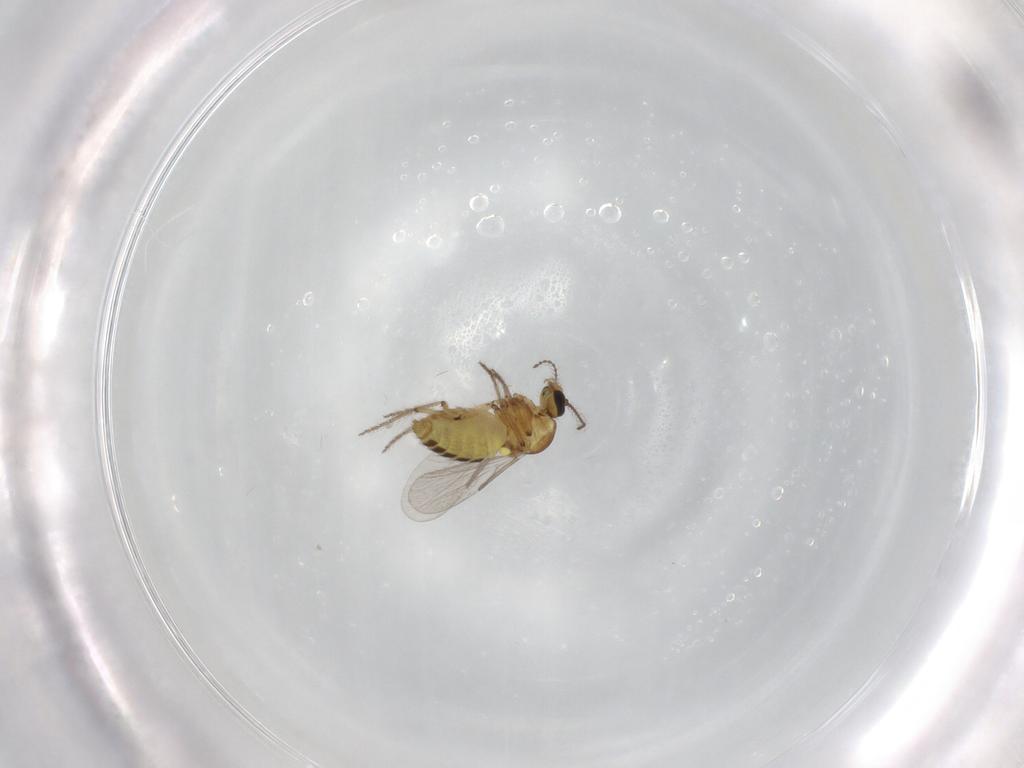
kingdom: Animalia
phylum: Arthropoda
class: Insecta
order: Diptera
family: Ceratopogonidae
